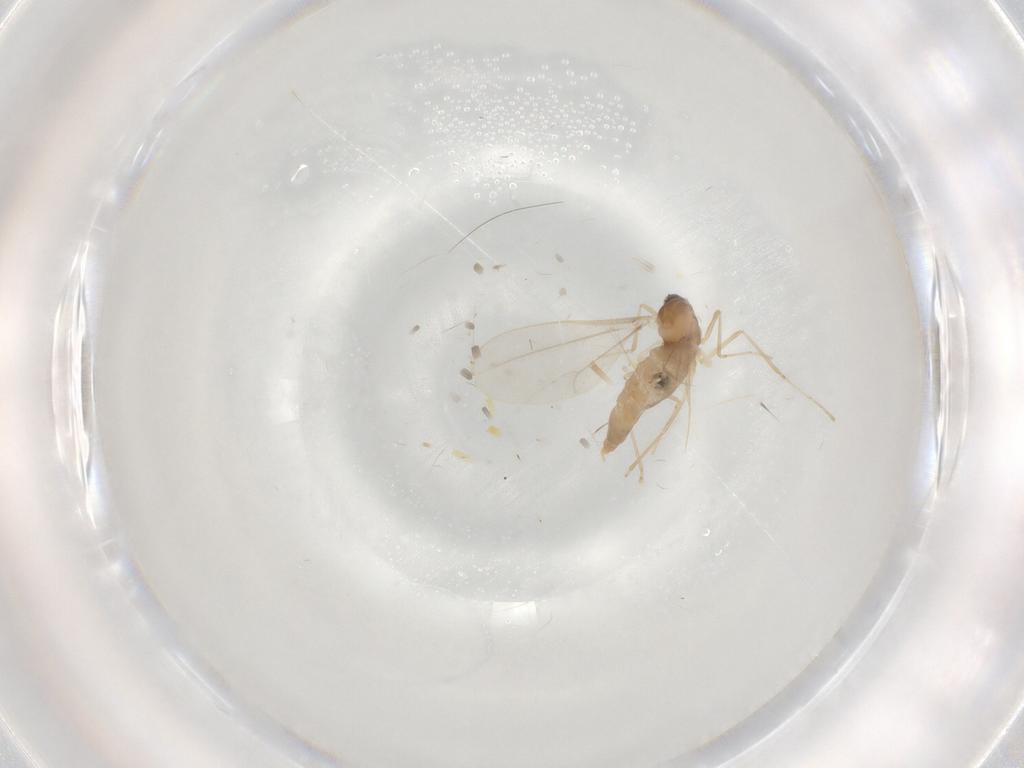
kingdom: Animalia
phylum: Arthropoda
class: Insecta
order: Diptera
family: Cecidomyiidae
